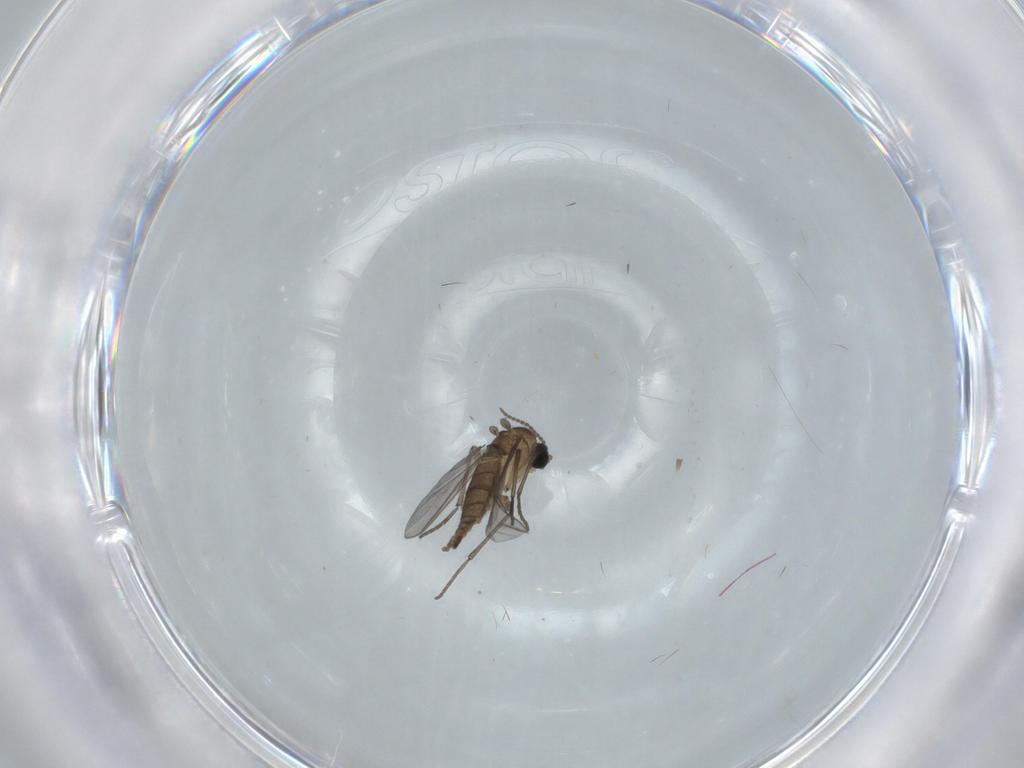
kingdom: Animalia
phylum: Arthropoda
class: Insecta
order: Diptera
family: Sciaridae
